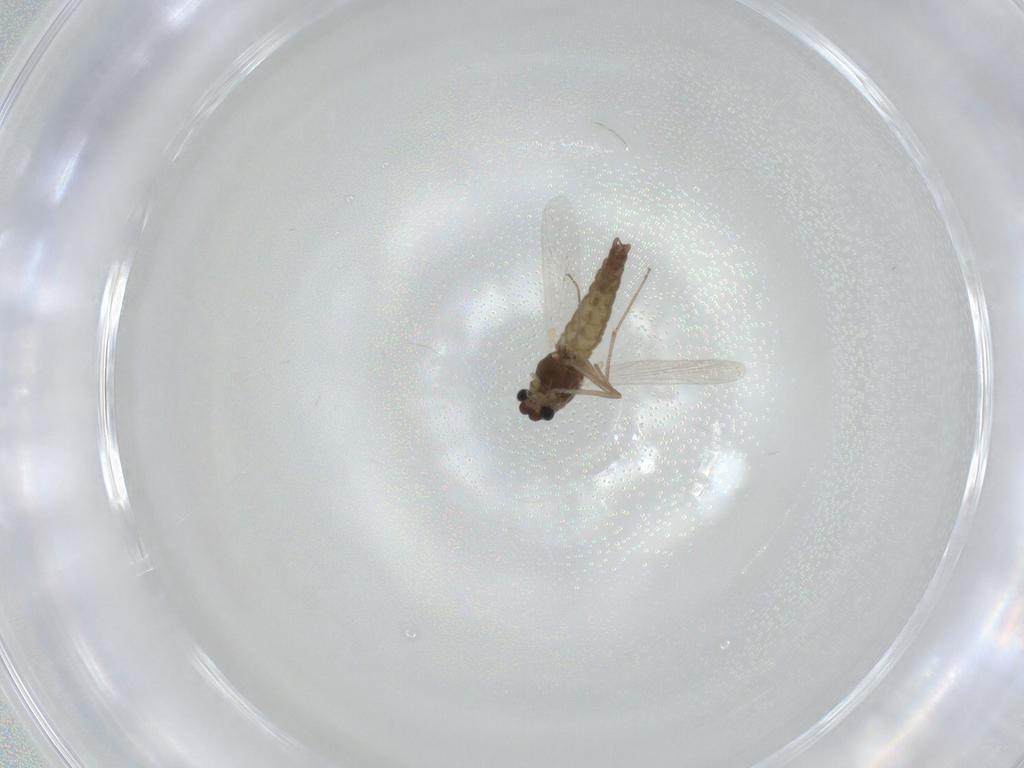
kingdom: Animalia
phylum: Arthropoda
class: Insecta
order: Diptera
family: Chironomidae
